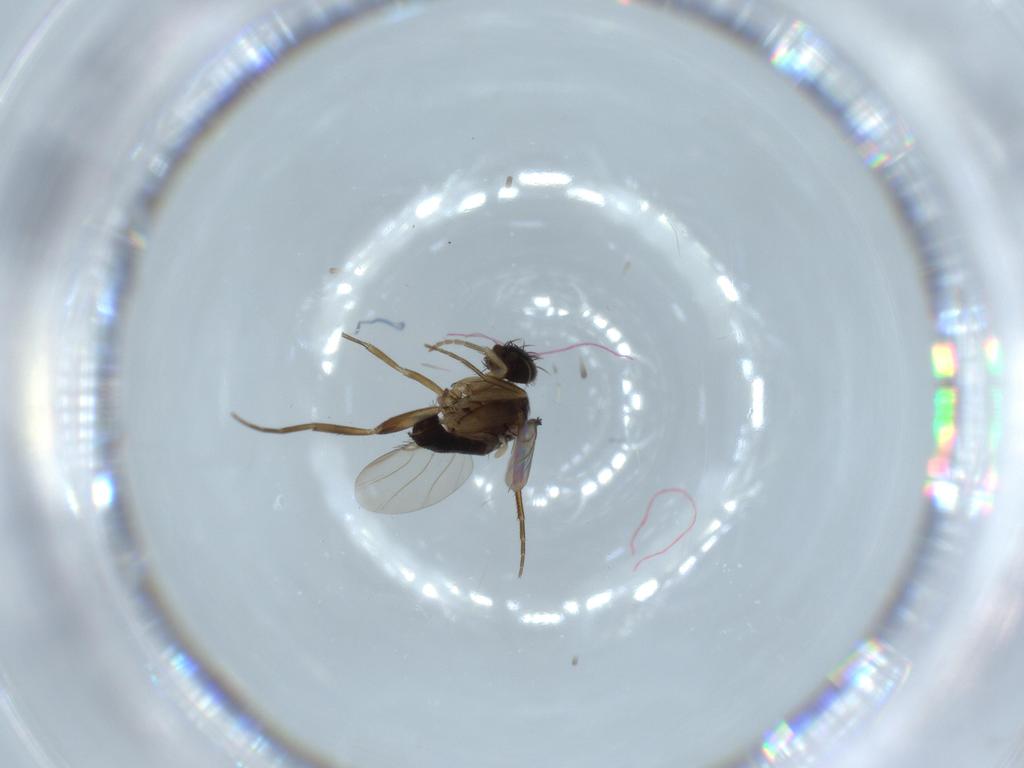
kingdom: Animalia
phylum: Arthropoda
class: Insecta
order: Diptera
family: Phoridae
